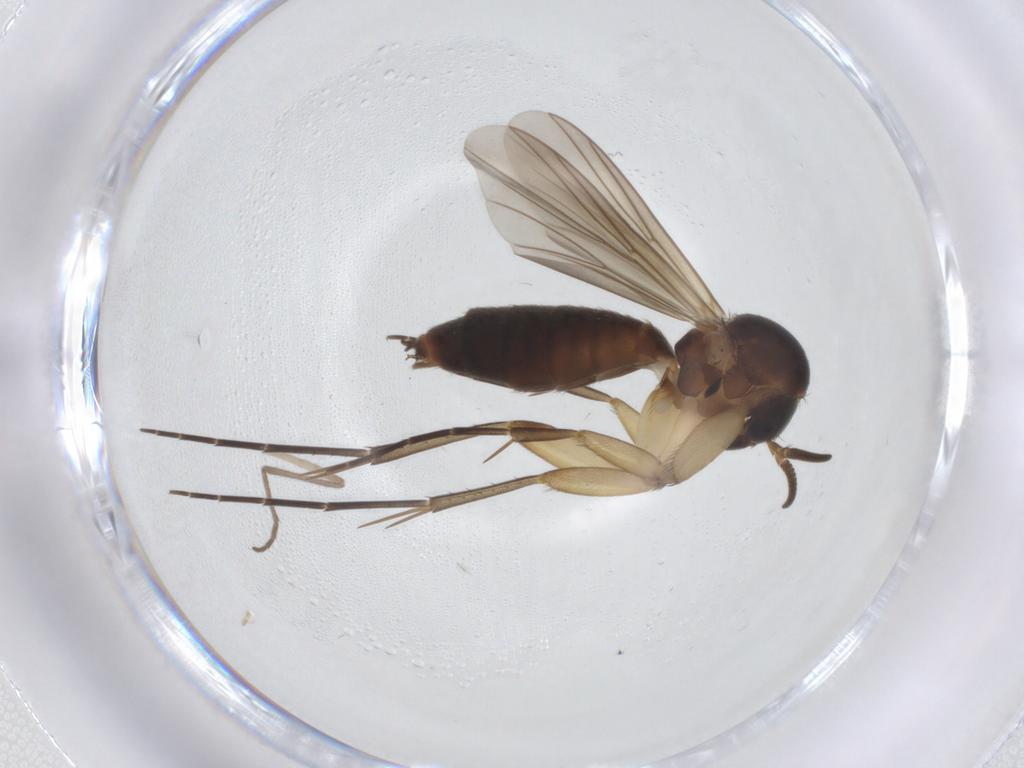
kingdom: Animalia
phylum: Arthropoda
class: Insecta
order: Diptera
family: Mycetophilidae
